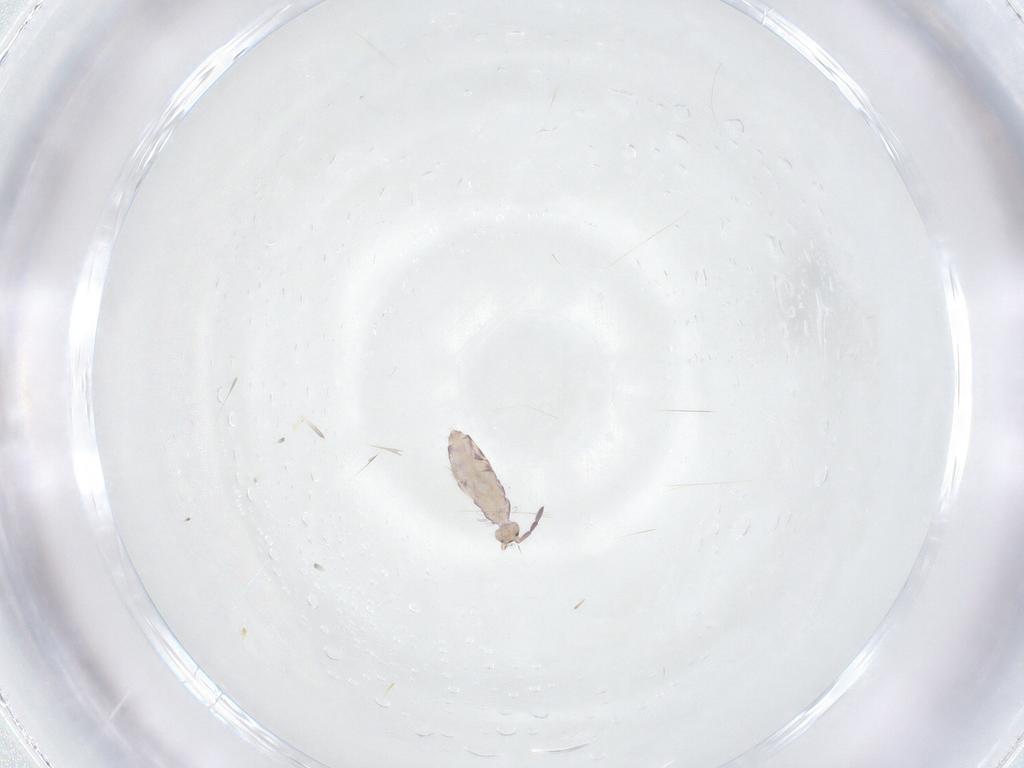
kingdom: Animalia
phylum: Arthropoda
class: Collembola
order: Entomobryomorpha
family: Entomobryidae
